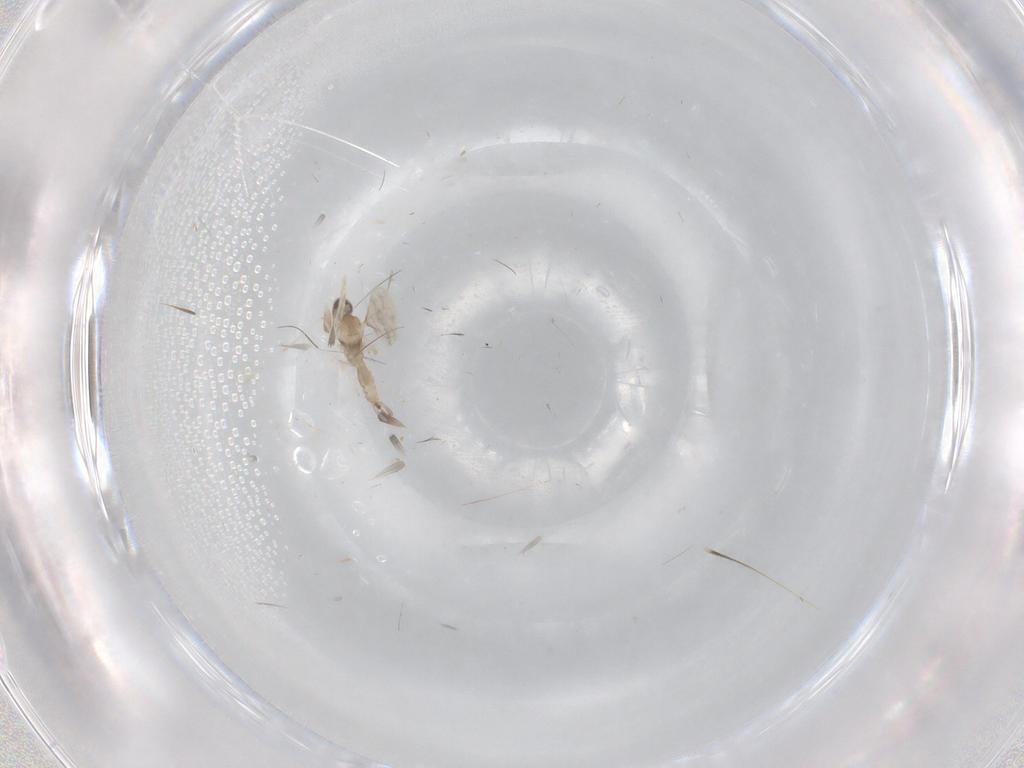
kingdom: Animalia
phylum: Arthropoda
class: Insecta
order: Diptera
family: Cecidomyiidae
